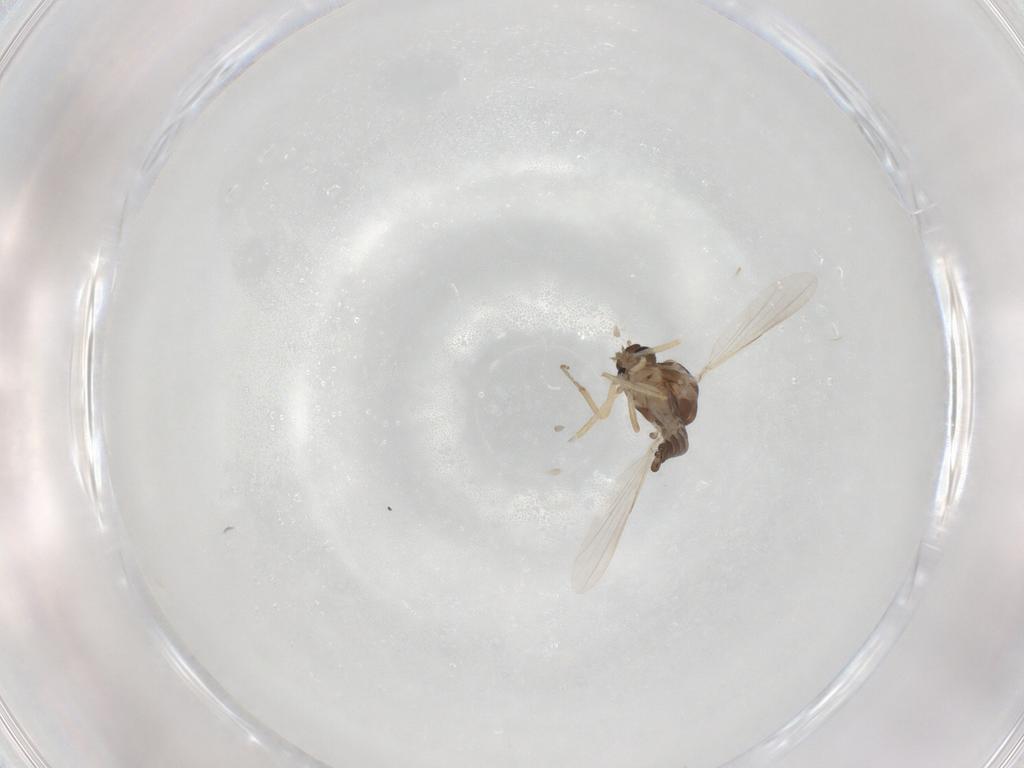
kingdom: Animalia
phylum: Arthropoda
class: Insecta
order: Diptera
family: Ceratopogonidae
